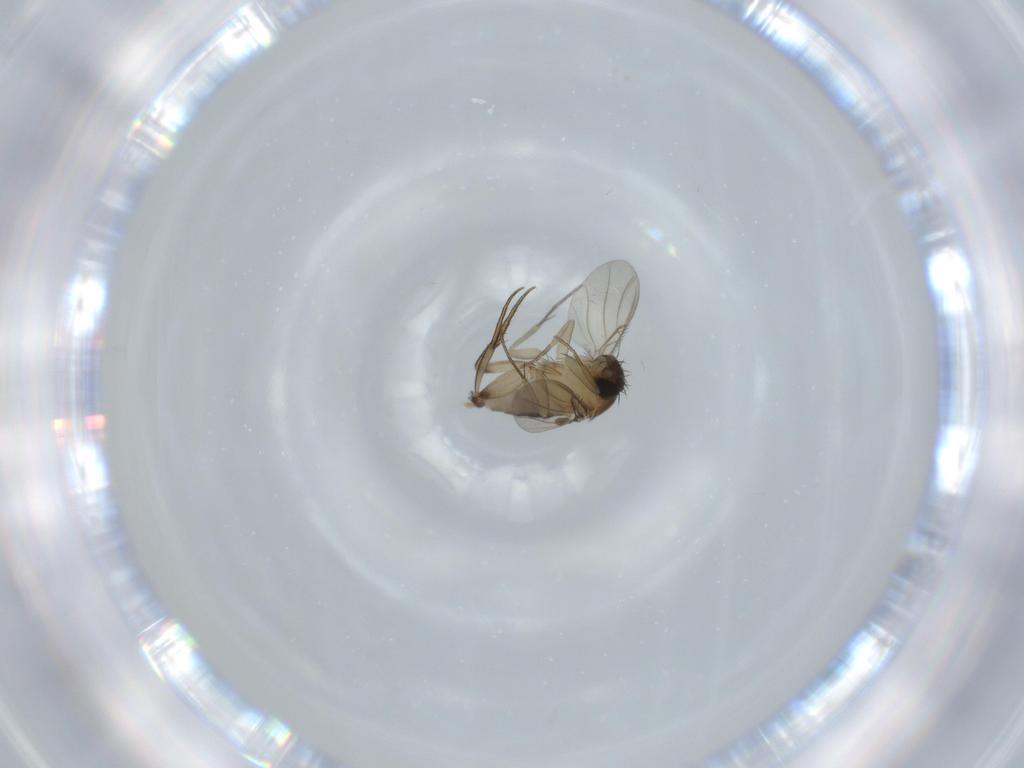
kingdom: Animalia
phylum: Arthropoda
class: Insecta
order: Diptera
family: Phoridae
